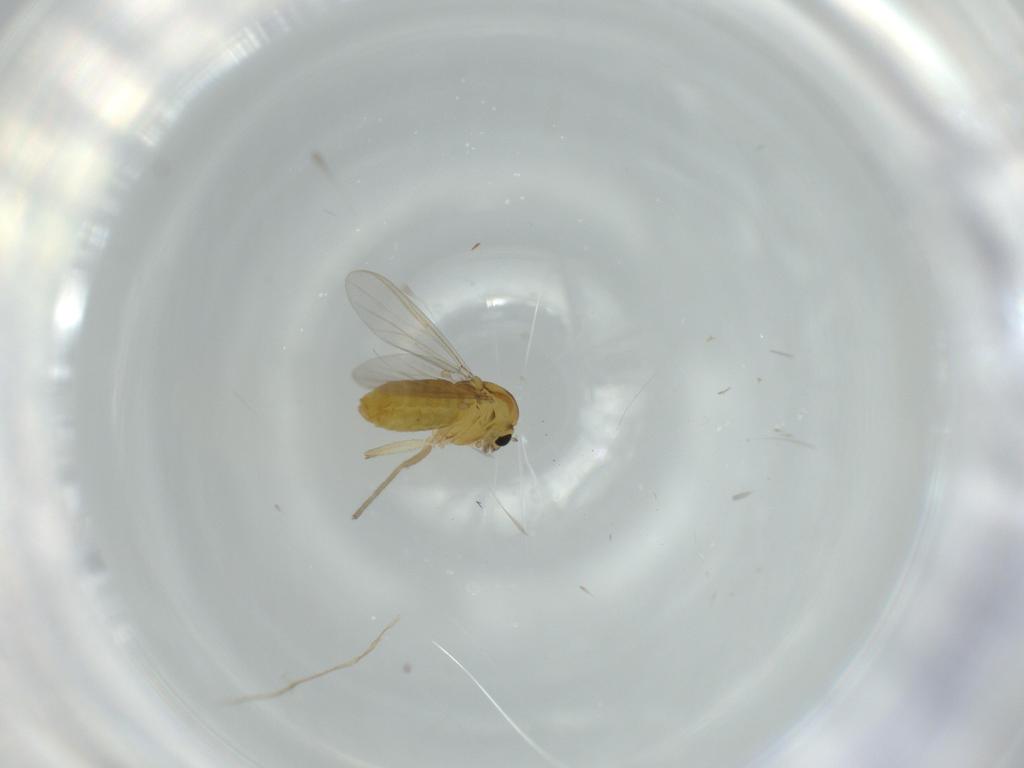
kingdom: Animalia
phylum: Arthropoda
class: Insecta
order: Diptera
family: Chironomidae
